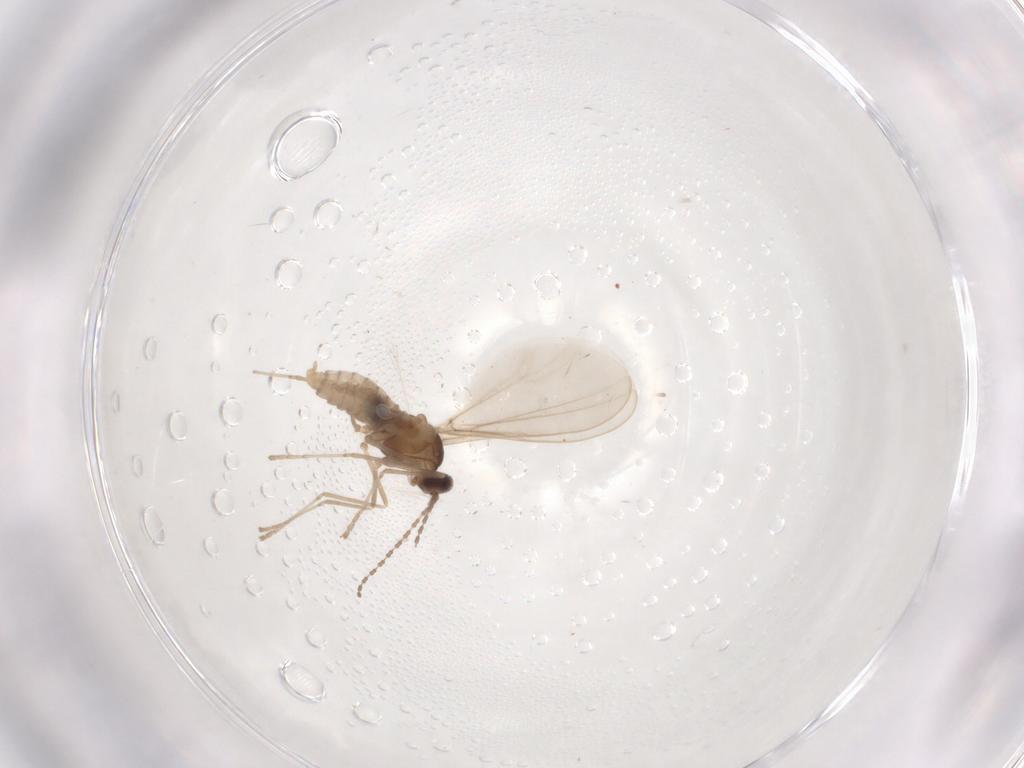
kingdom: Animalia
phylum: Arthropoda
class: Insecta
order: Diptera
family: Cecidomyiidae
